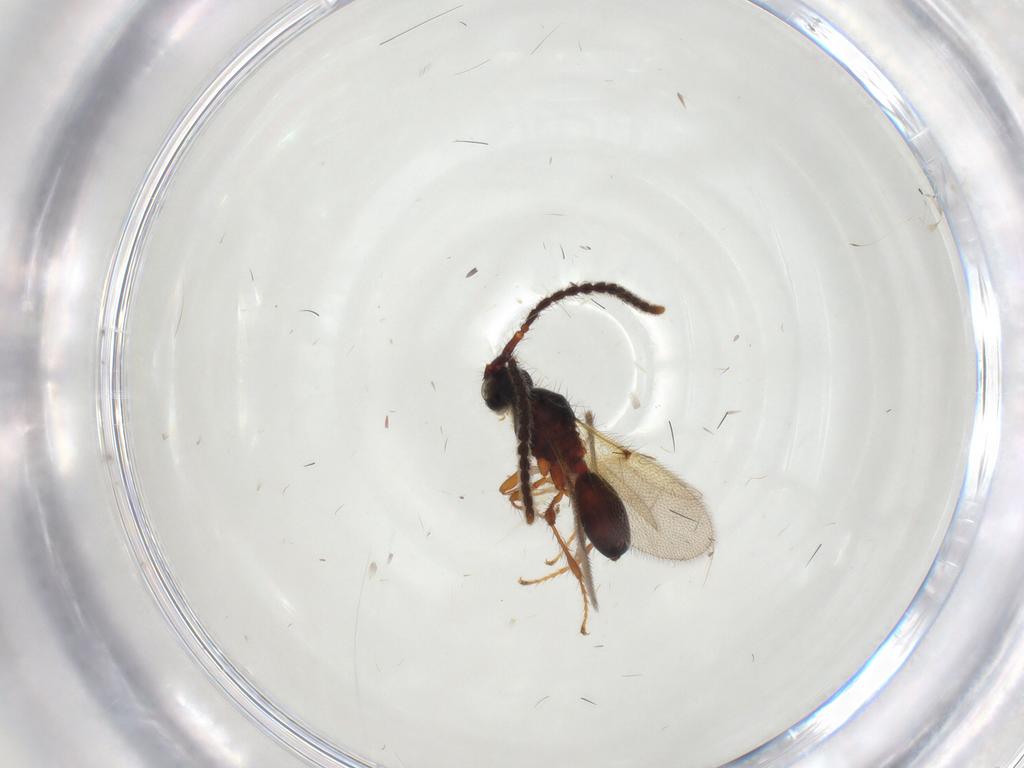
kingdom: Animalia
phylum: Arthropoda
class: Insecta
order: Hymenoptera
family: Diapriidae
